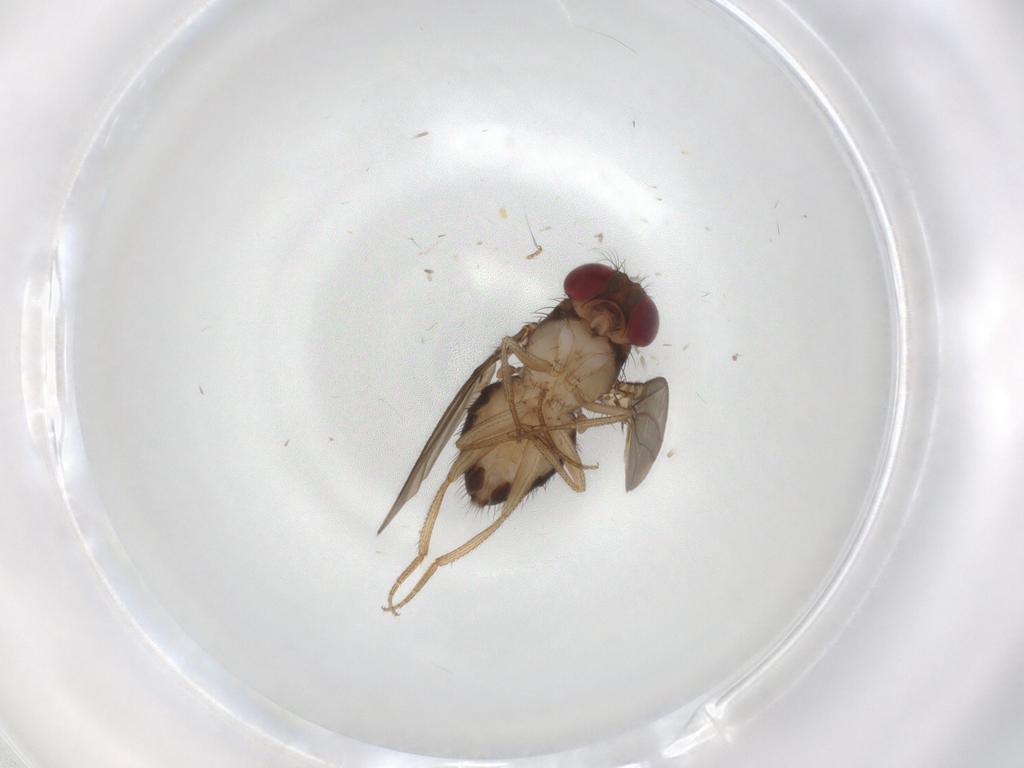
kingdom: Animalia
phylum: Arthropoda
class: Insecta
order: Diptera
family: Drosophilidae
